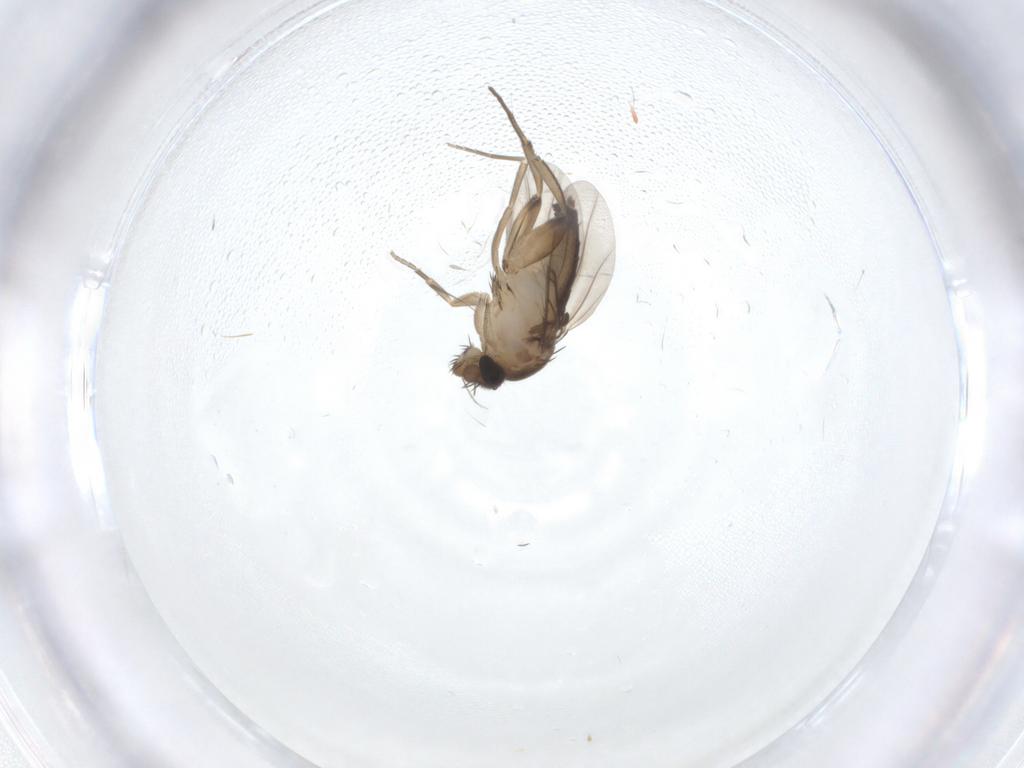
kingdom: Animalia
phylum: Arthropoda
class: Insecta
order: Diptera
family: Phoridae
